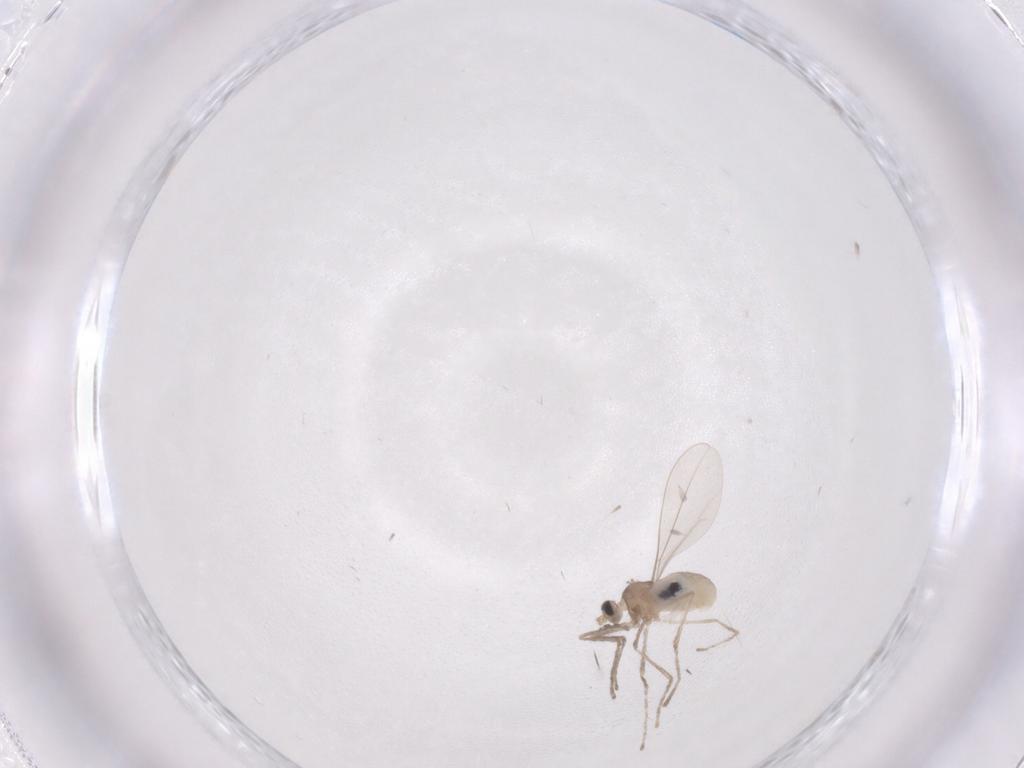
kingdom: Animalia
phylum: Arthropoda
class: Insecta
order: Diptera
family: Cecidomyiidae
